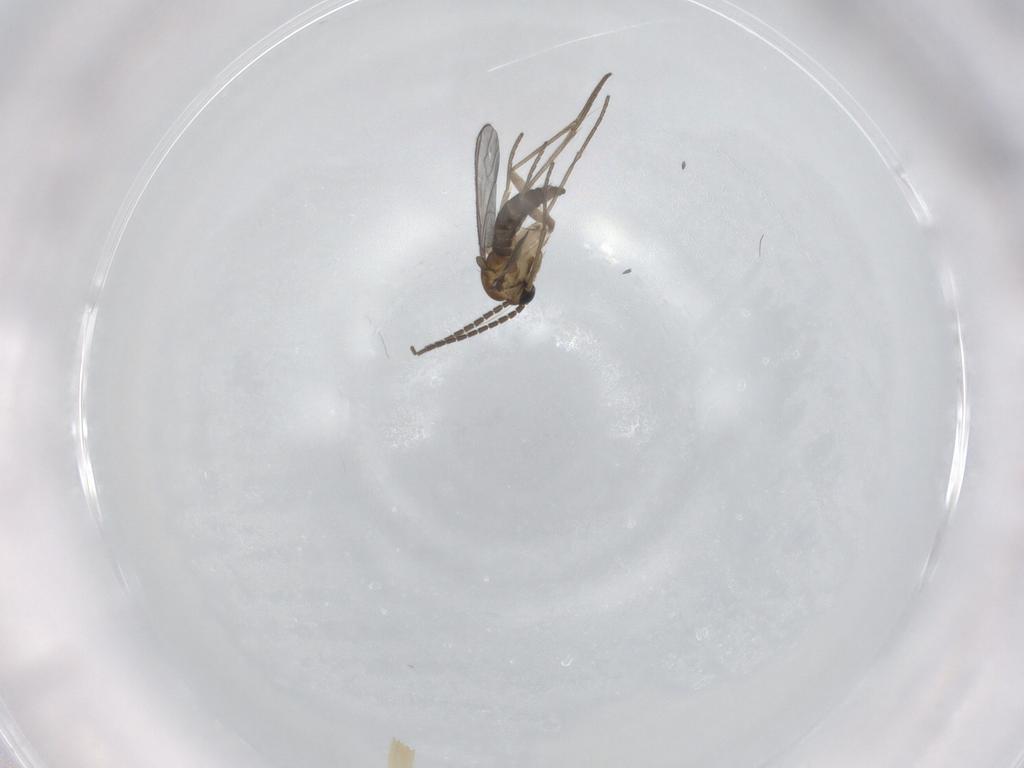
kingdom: Animalia
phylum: Arthropoda
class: Insecta
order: Diptera
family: Sciaridae
